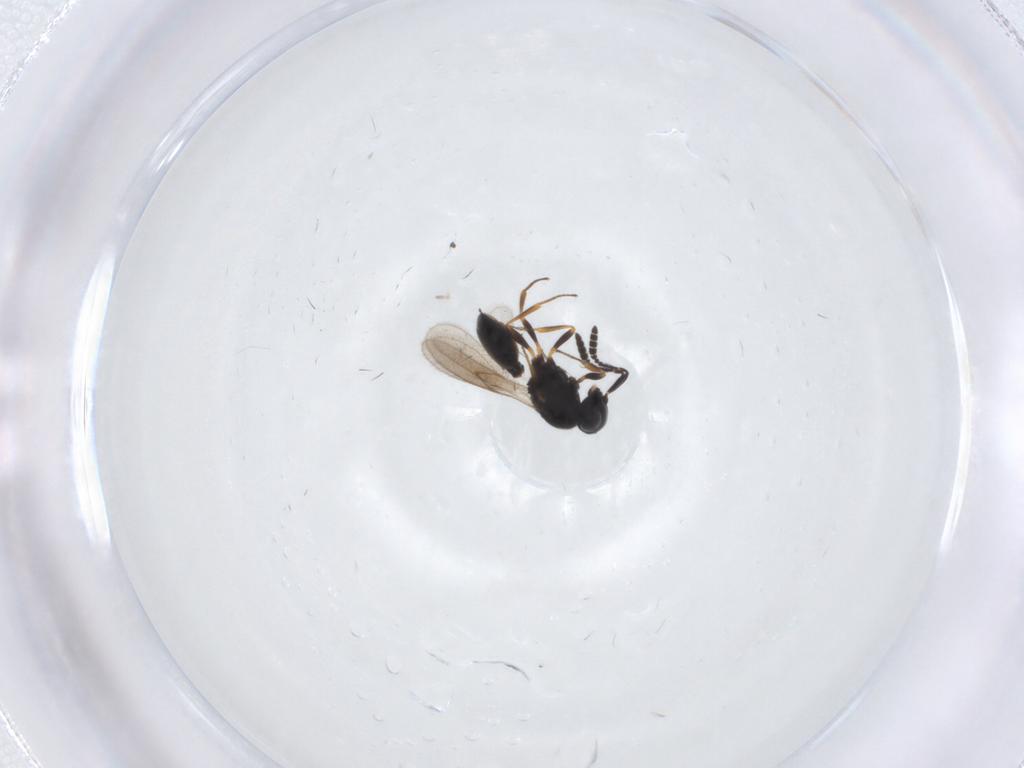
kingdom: Animalia
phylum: Arthropoda
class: Insecta
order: Hymenoptera
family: Scelionidae
